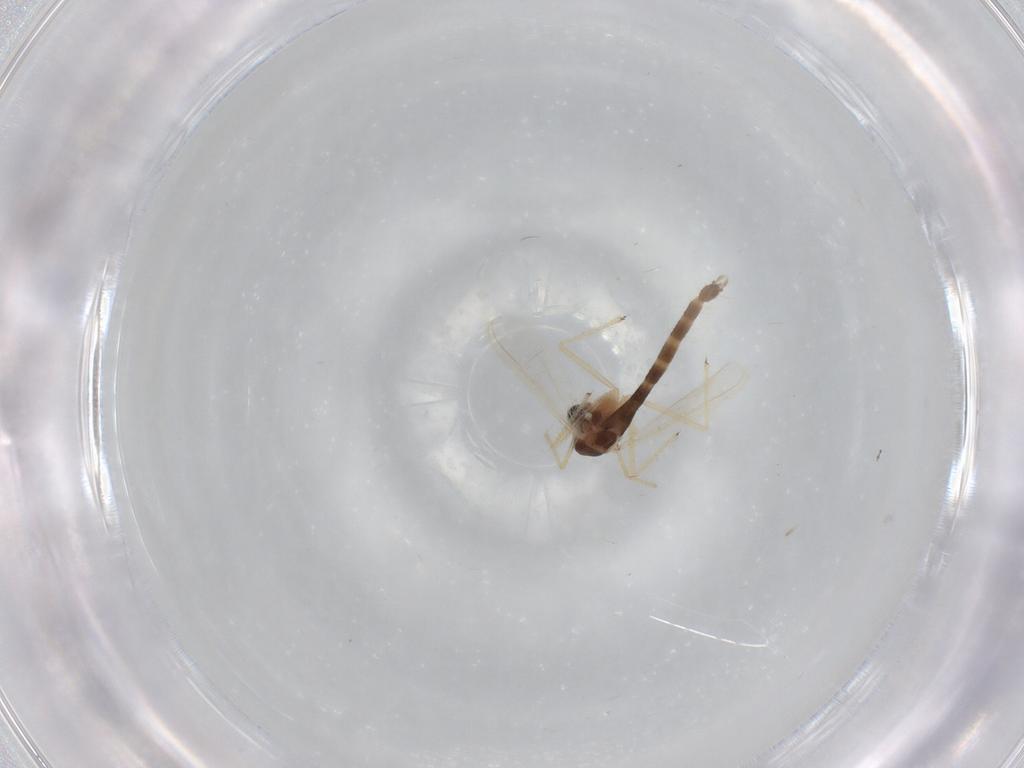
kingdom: Animalia
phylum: Arthropoda
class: Insecta
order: Diptera
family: Chironomidae
